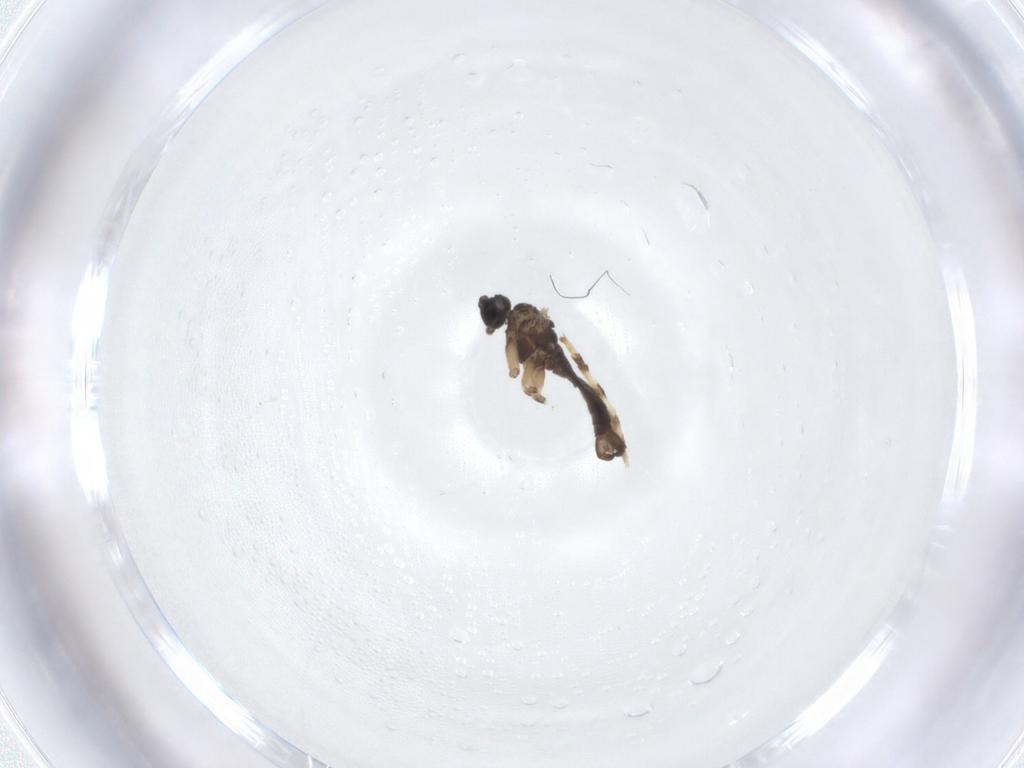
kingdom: Animalia
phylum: Arthropoda
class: Insecta
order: Diptera
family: Sciaridae
